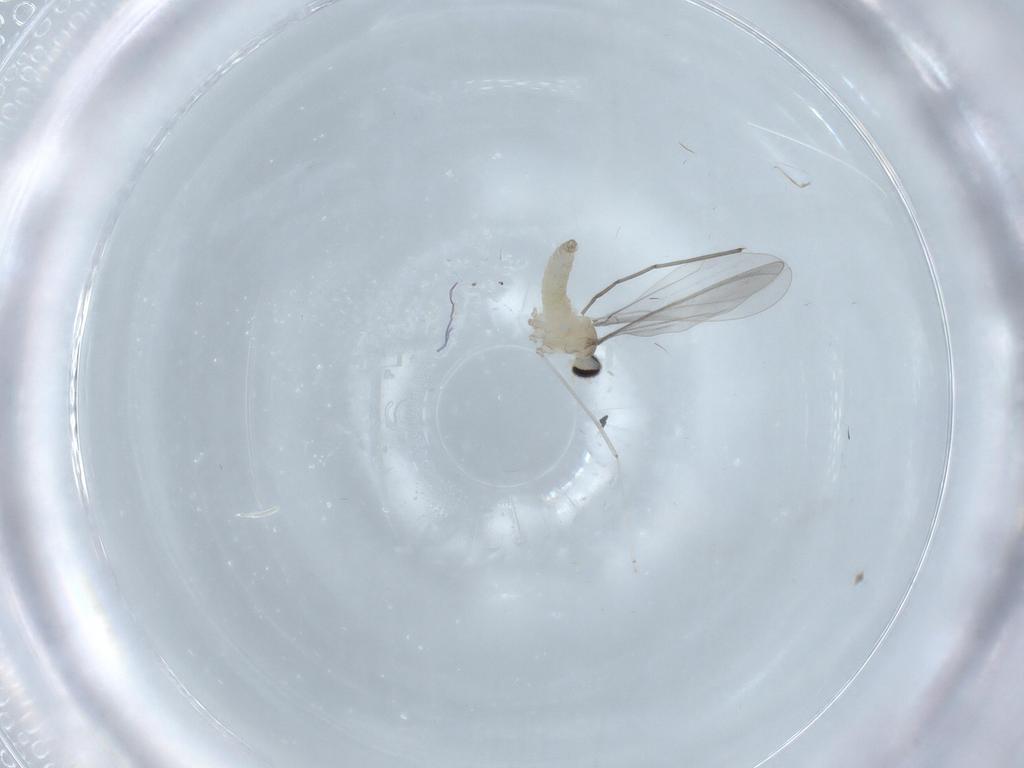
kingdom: Animalia
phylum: Arthropoda
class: Insecta
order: Diptera
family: Cecidomyiidae
